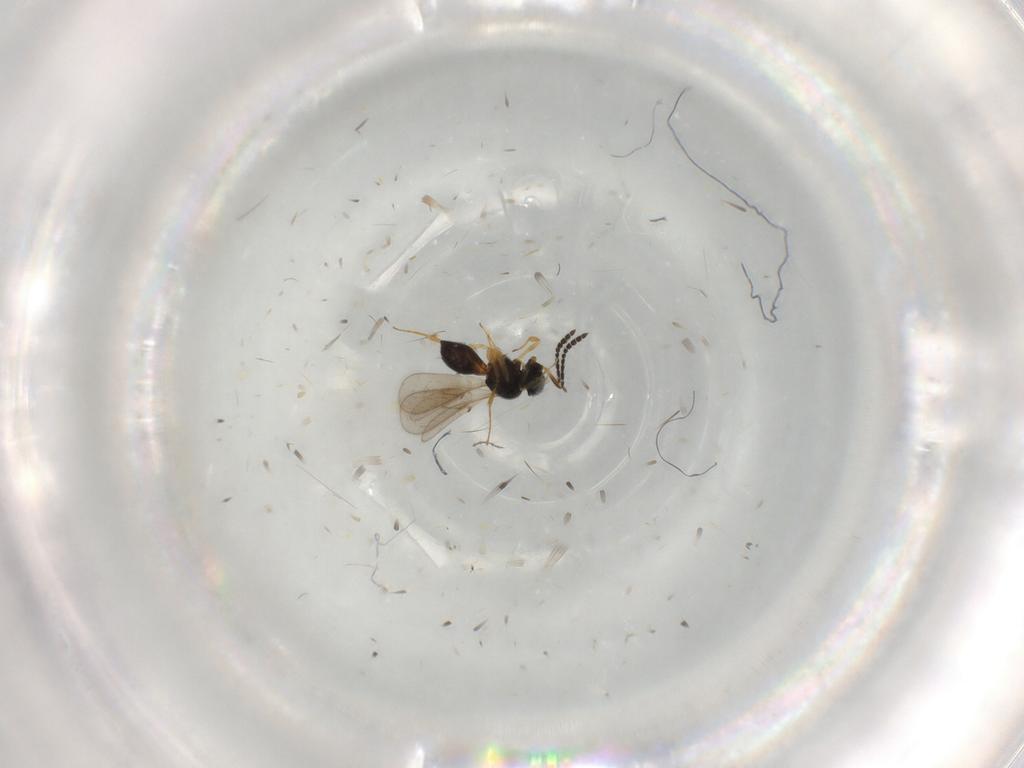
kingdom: Animalia
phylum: Arthropoda
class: Insecta
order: Hymenoptera
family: Scelionidae
